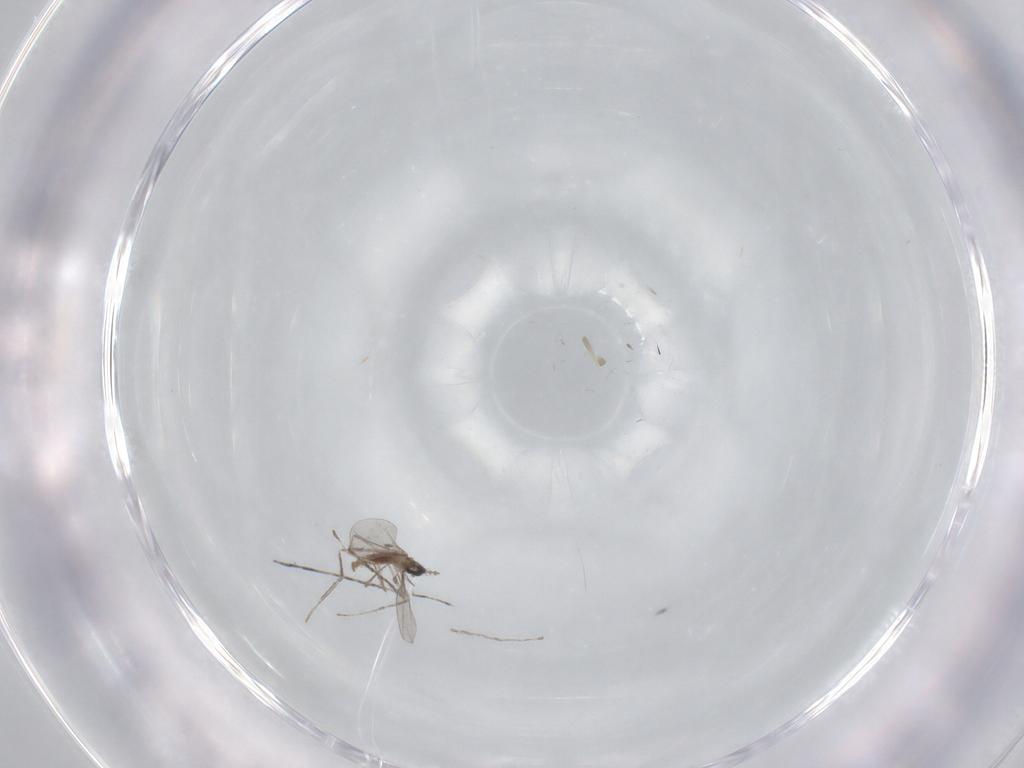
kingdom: Animalia
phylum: Arthropoda
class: Insecta
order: Diptera
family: Cecidomyiidae
